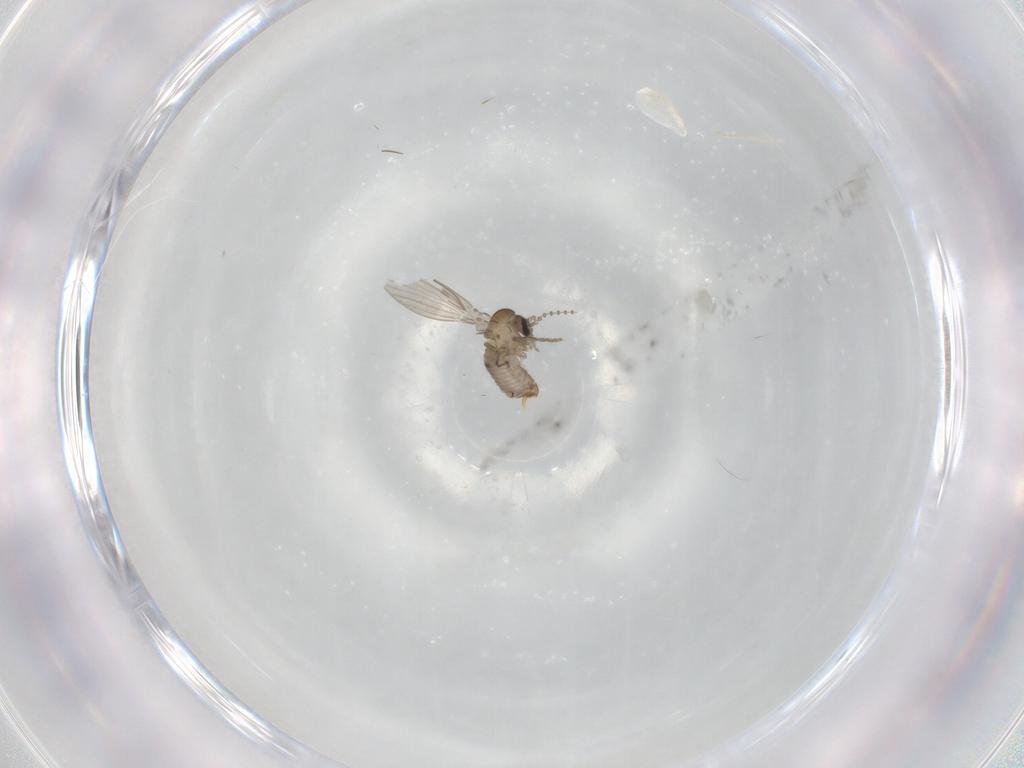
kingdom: Animalia
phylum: Arthropoda
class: Insecta
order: Diptera
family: Psychodidae
